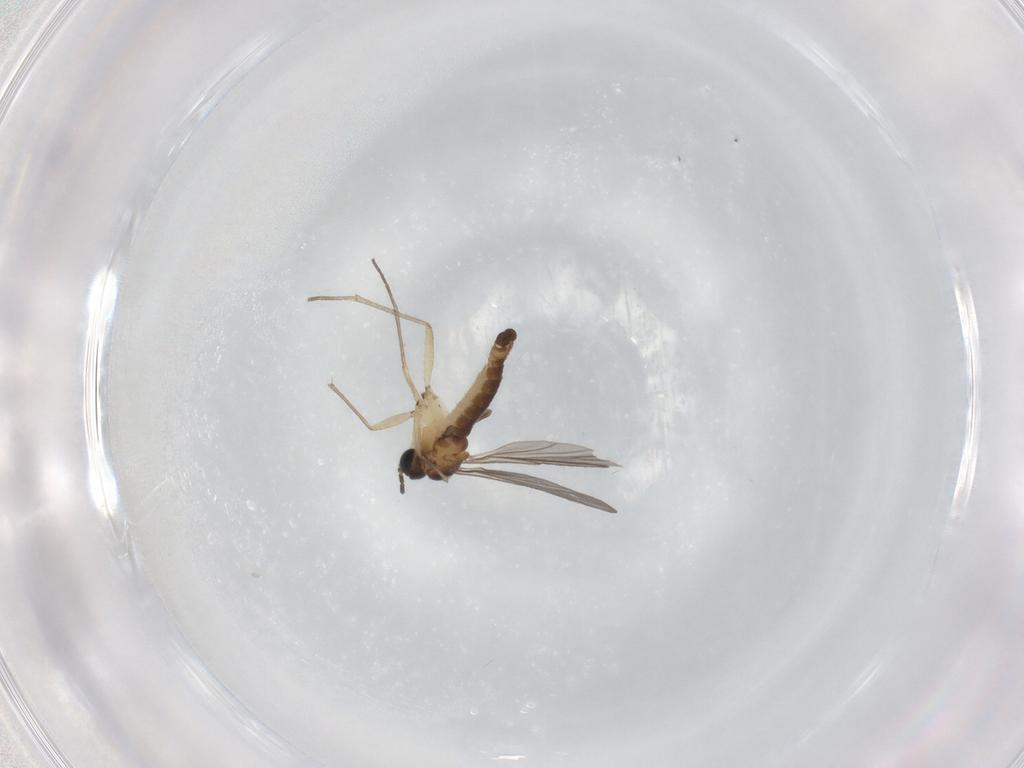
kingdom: Animalia
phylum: Arthropoda
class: Insecta
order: Diptera
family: Sciaridae
